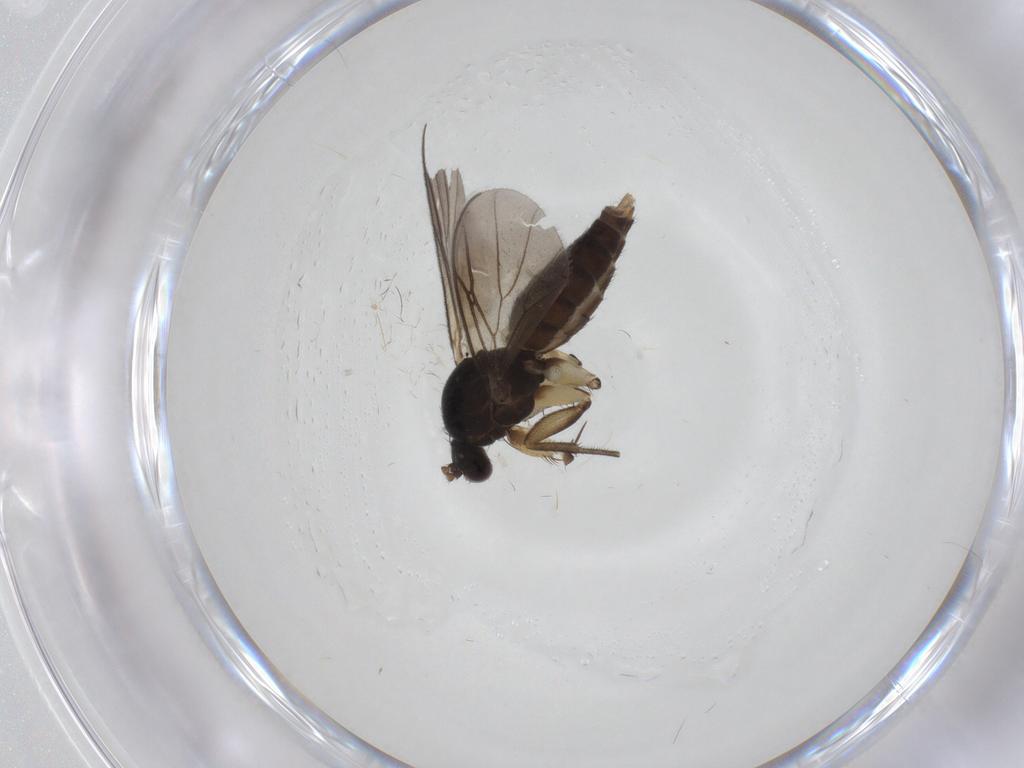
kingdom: Animalia
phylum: Arthropoda
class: Insecta
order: Diptera
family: Mycetophilidae
